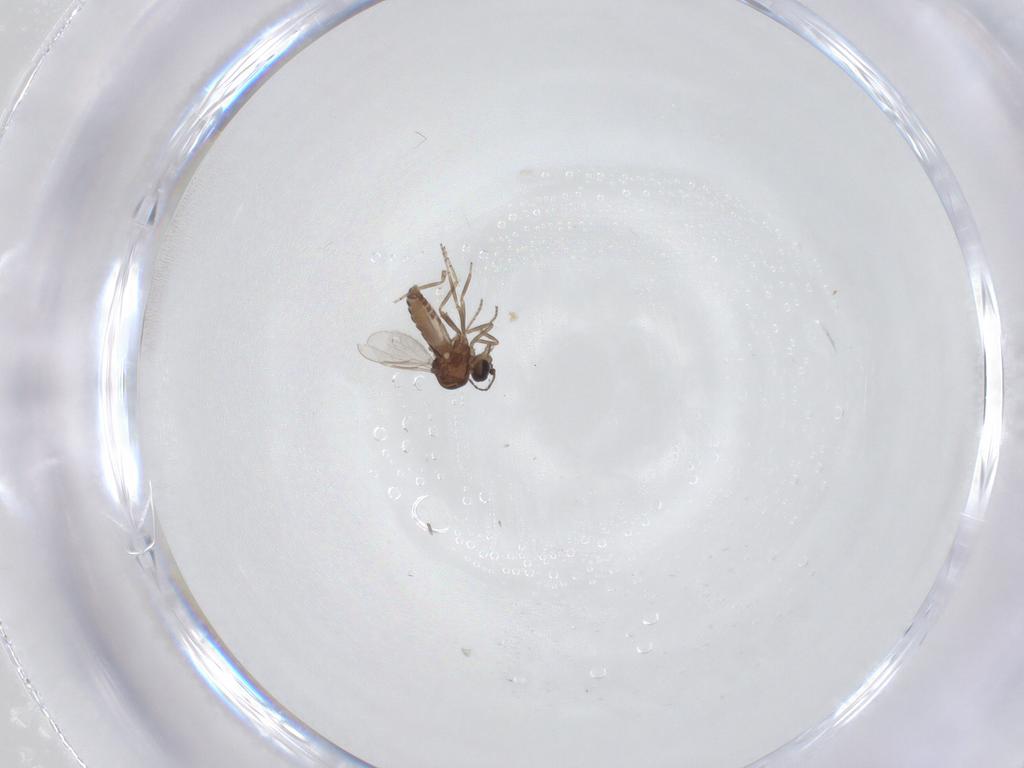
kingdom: Animalia
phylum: Arthropoda
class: Insecta
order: Diptera
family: Ceratopogonidae
